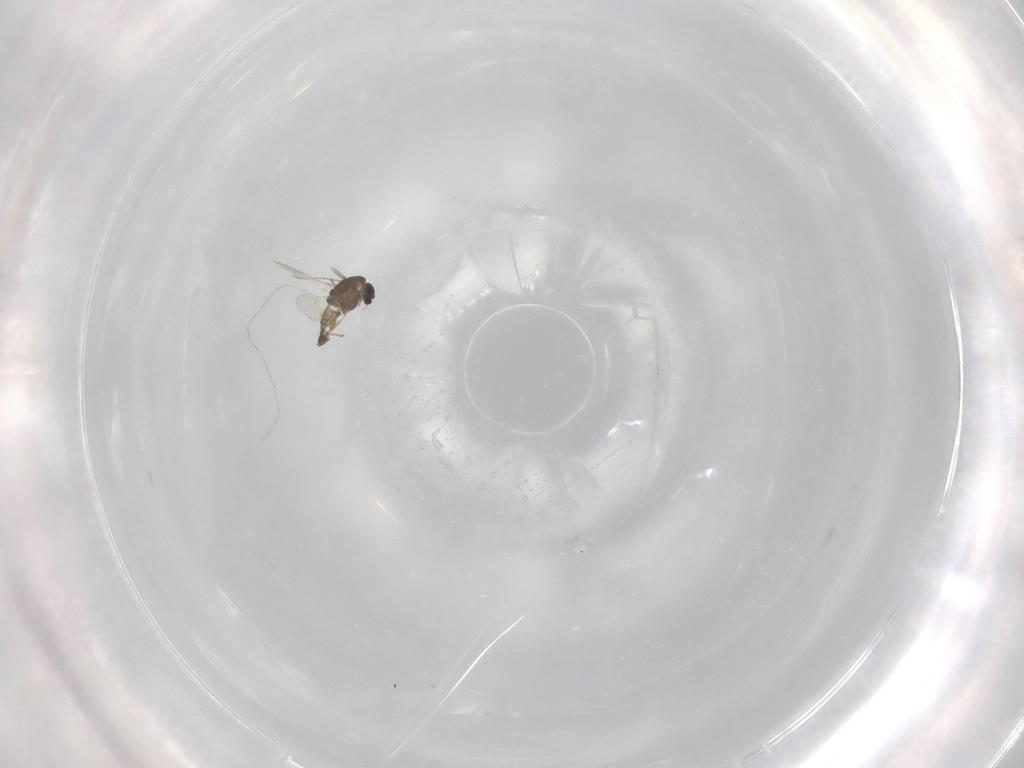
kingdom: Animalia
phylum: Arthropoda
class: Insecta
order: Diptera
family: Chironomidae
